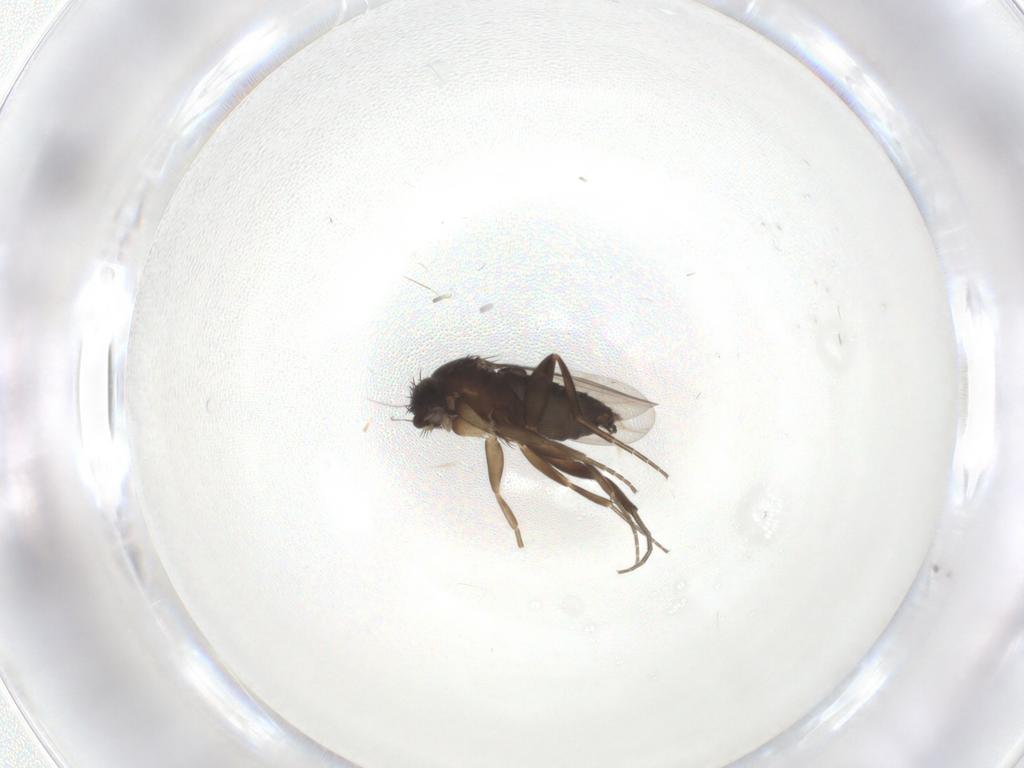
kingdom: Animalia
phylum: Arthropoda
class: Insecta
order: Diptera
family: Phoridae
